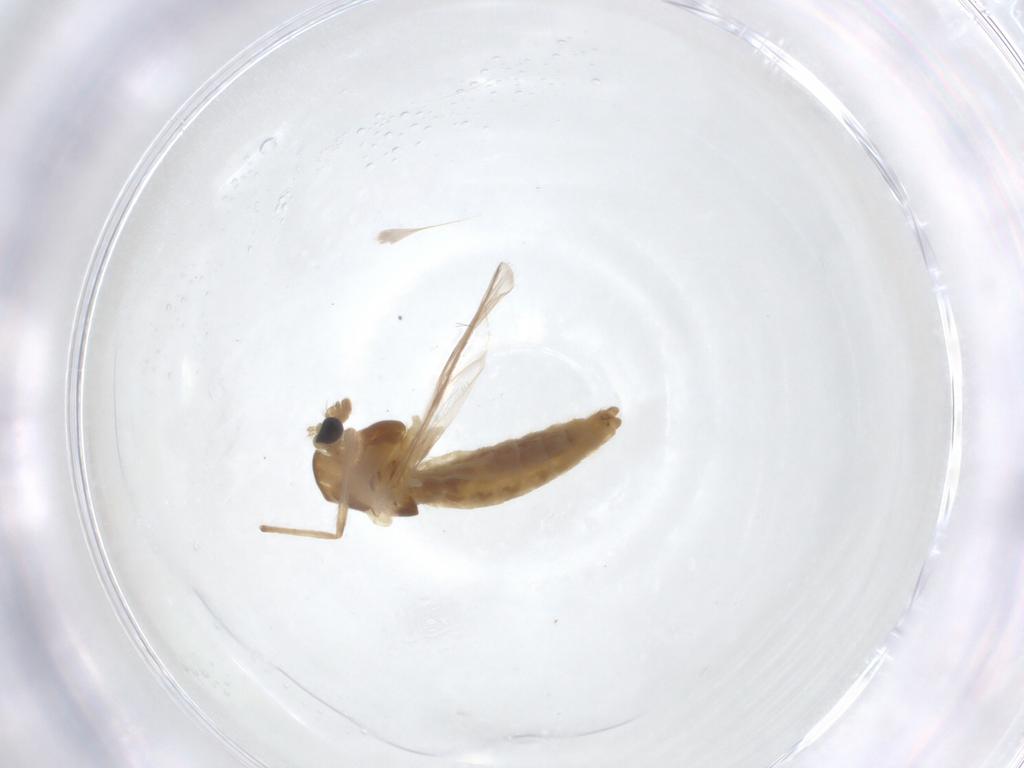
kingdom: Animalia
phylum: Arthropoda
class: Insecta
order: Diptera
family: Chironomidae
